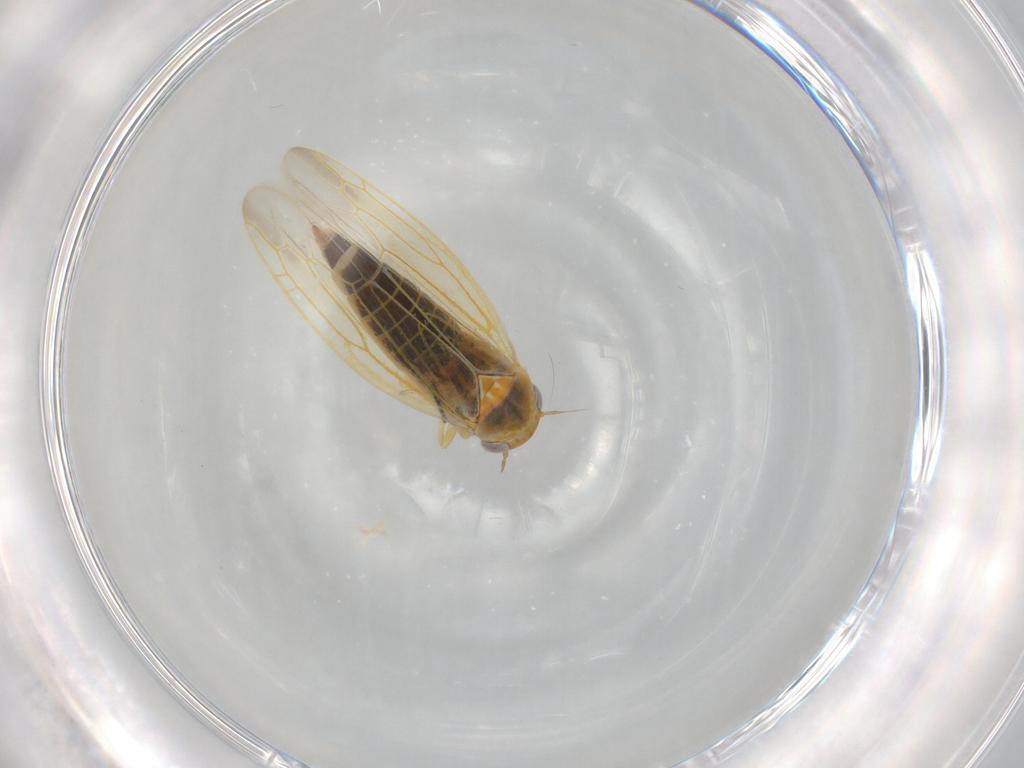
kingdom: Animalia
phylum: Arthropoda
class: Insecta
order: Hemiptera
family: Cicadellidae
